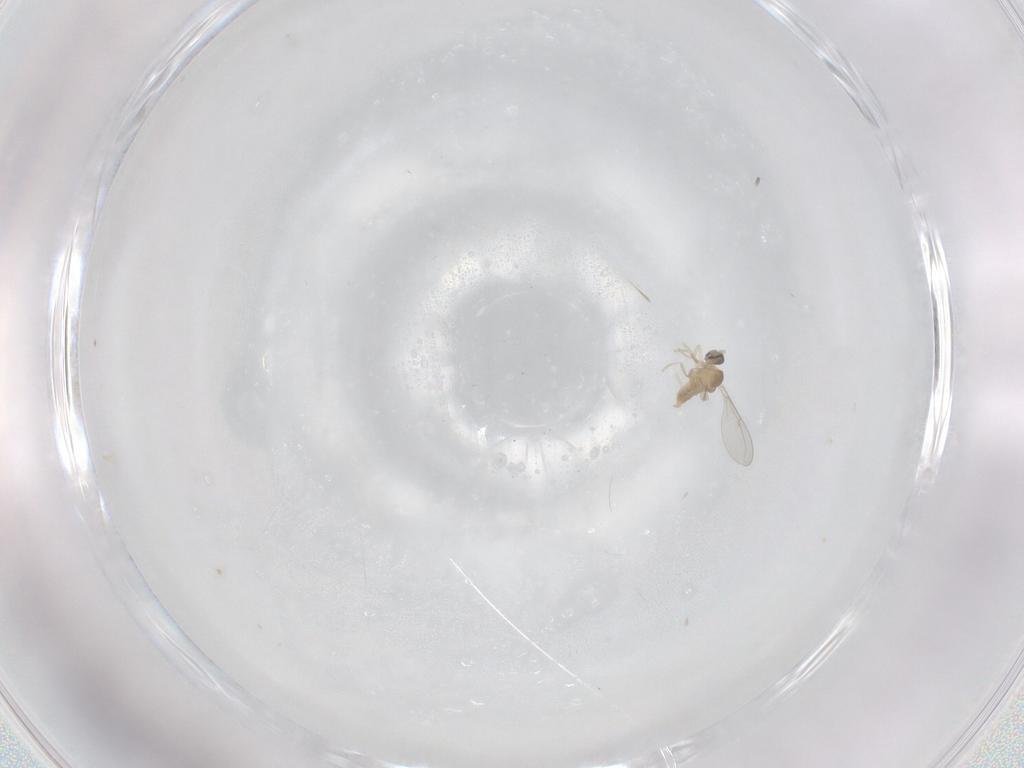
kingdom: Animalia
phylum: Arthropoda
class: Insecta
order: Diptera
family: Cecidomyiidae
